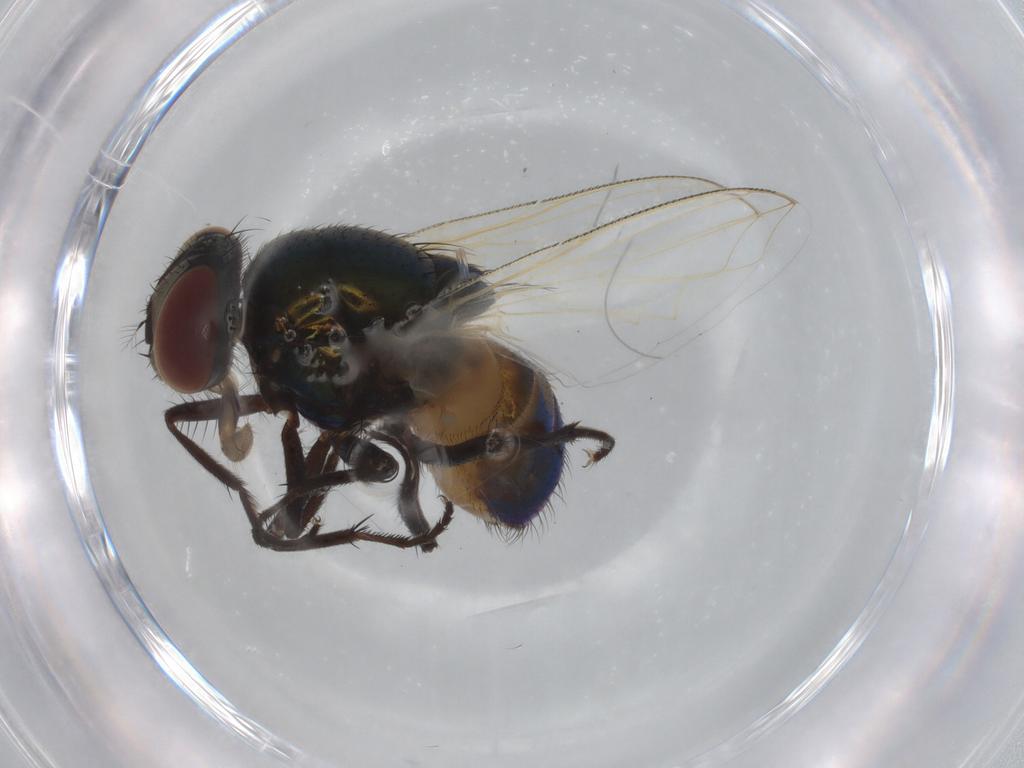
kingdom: Animalia
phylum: Arthropoda
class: Insecta
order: Diptera
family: Muscidae
